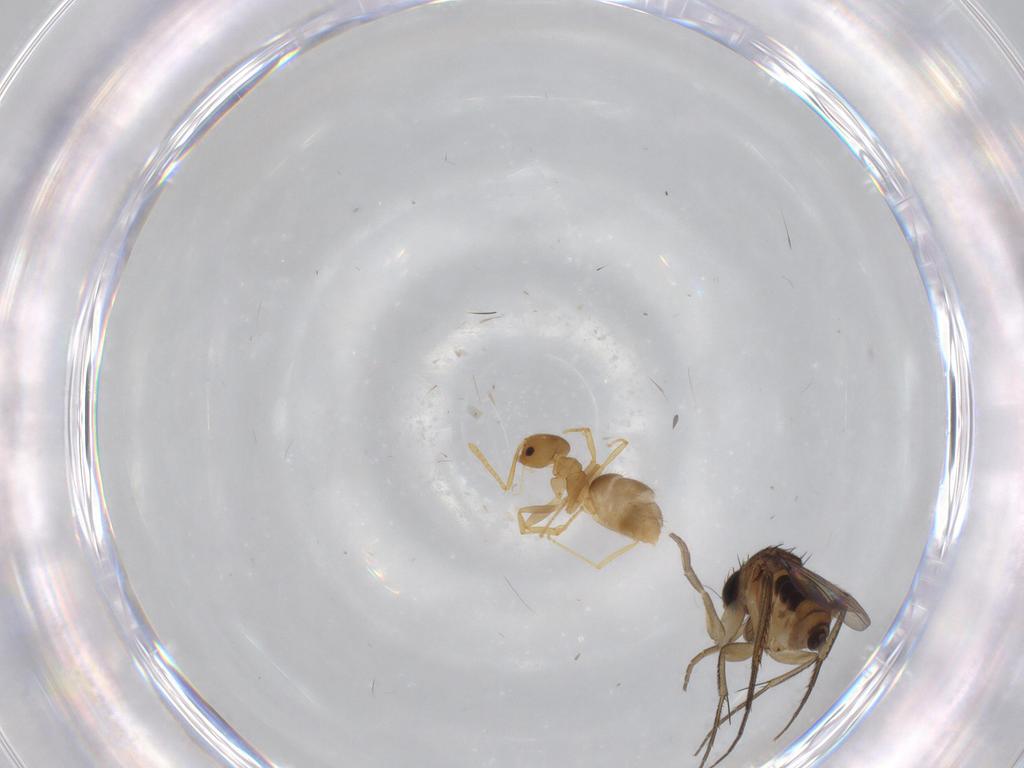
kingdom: Animalia
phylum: Arthropoda
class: Insecta
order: Diptera
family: Phoridae
